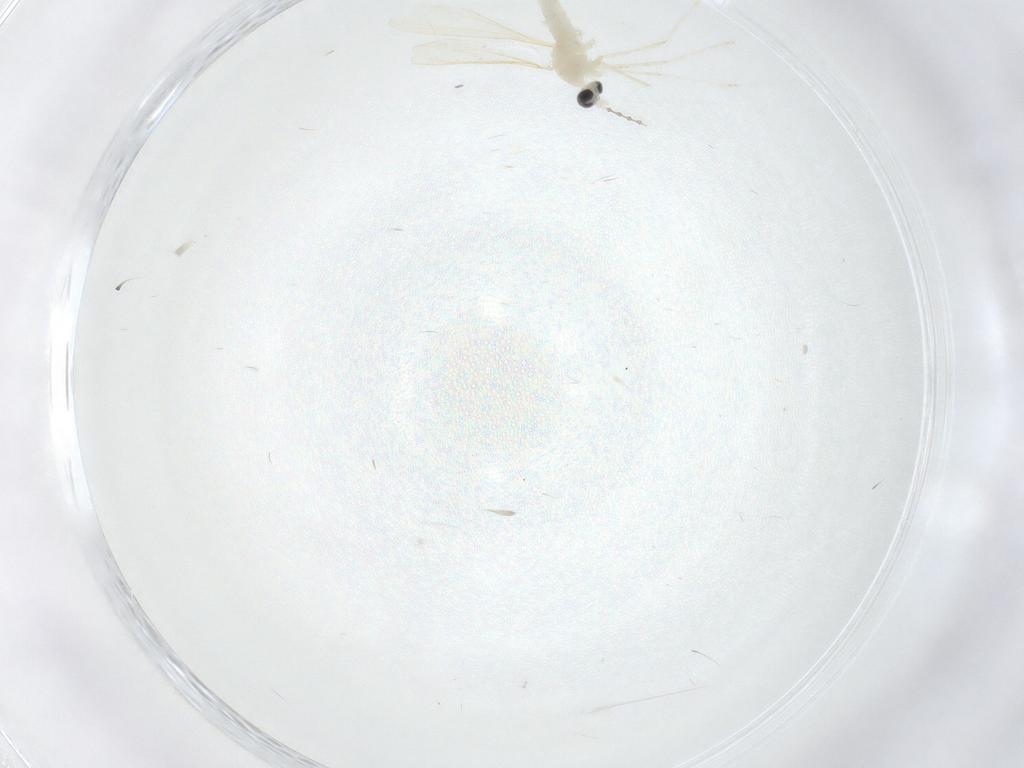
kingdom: Animalia
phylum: Arthropoda
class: Insecta
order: Diptera
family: Cecidomyiidae
